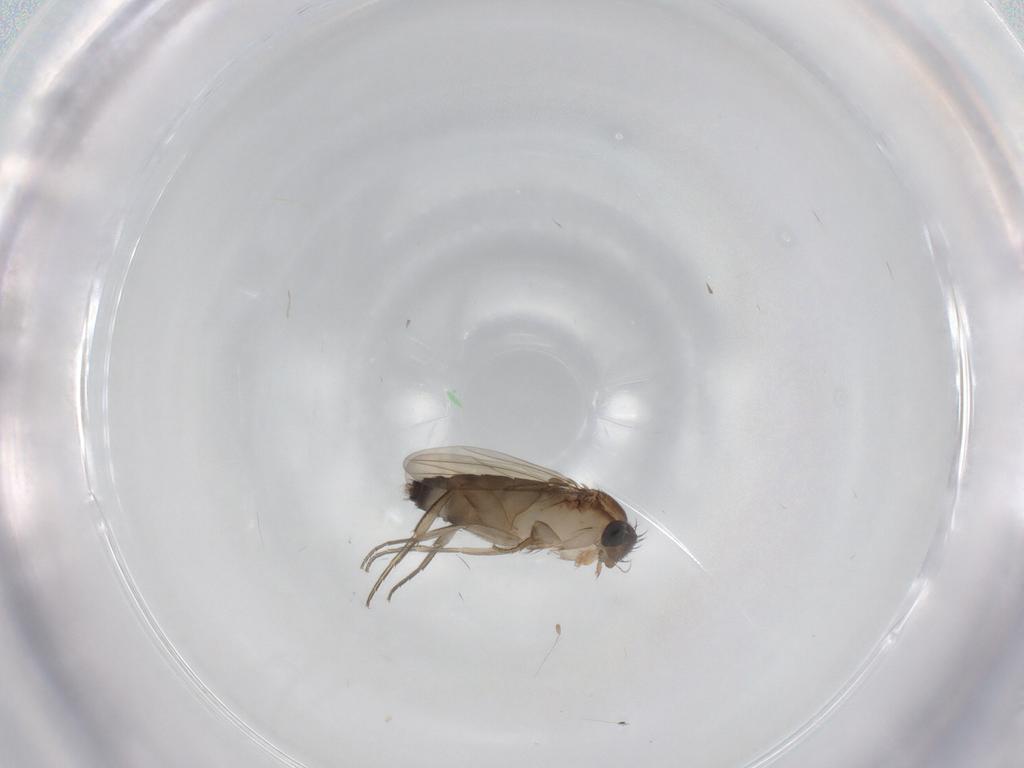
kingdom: Animalia
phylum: Arthropoda
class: Insecta
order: Diptera
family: Phoridae
